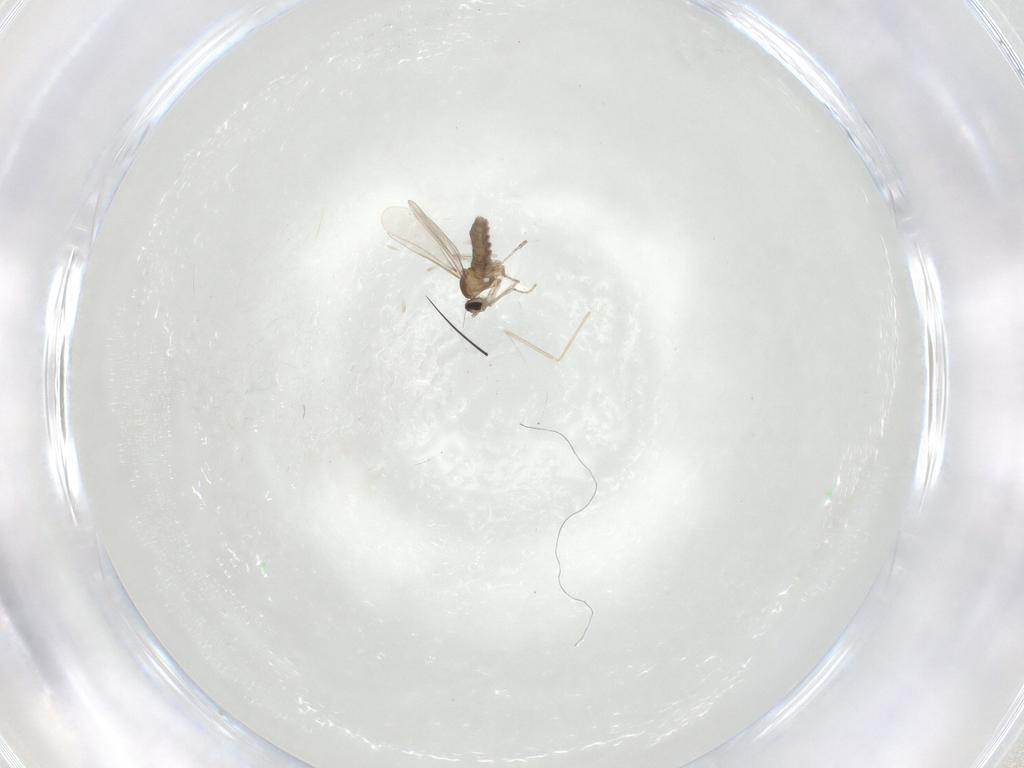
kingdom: Animalia
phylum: Arthropoda
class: Insecta
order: Diptera
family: Cecidomyiidae
